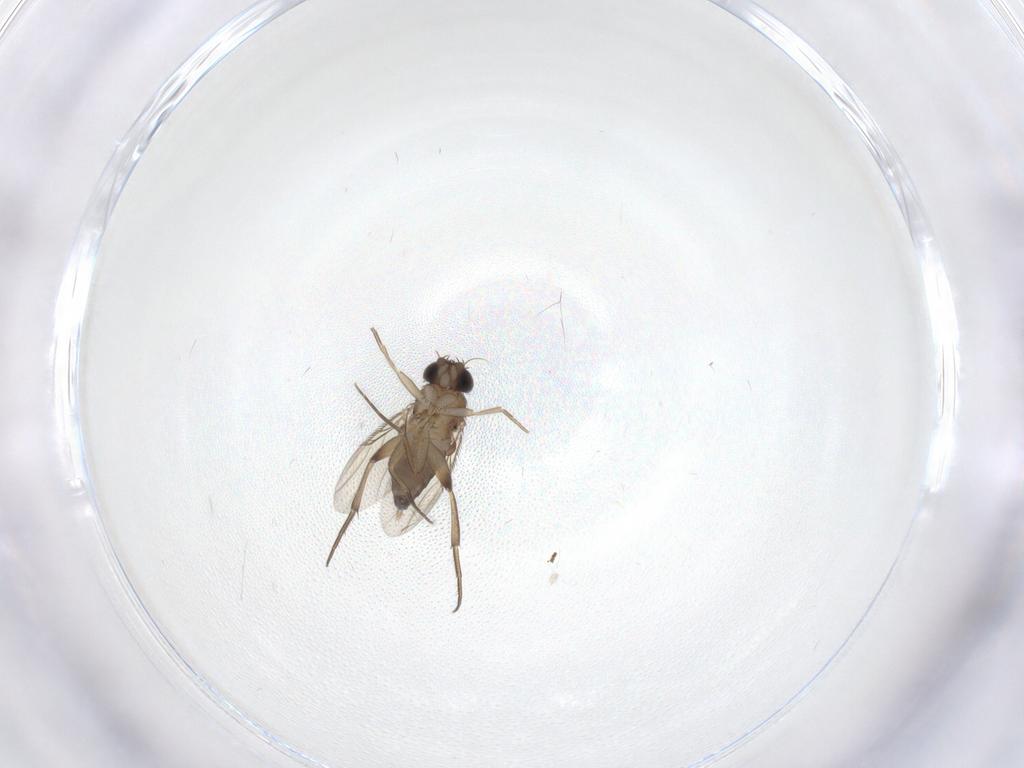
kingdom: Animalia
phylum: Arthropoda
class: Insecta
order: Diptera
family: Phoridae
